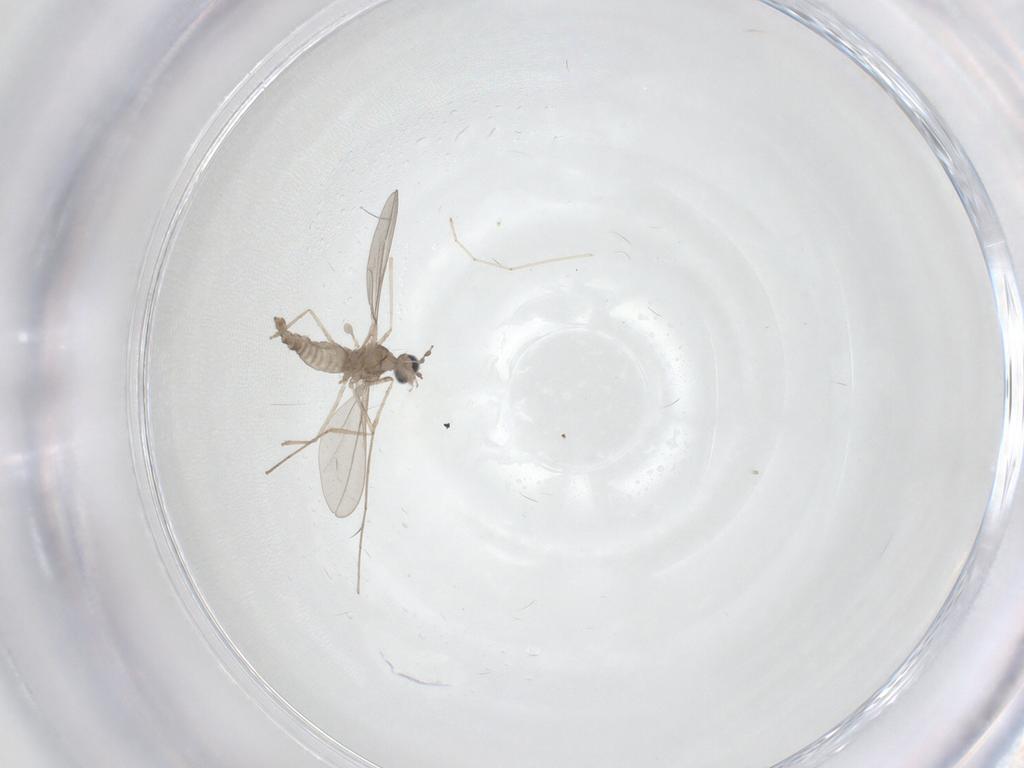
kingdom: Animalia
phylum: Arthropoda
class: Insecta
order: Diptera
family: Cecidomyiidae
